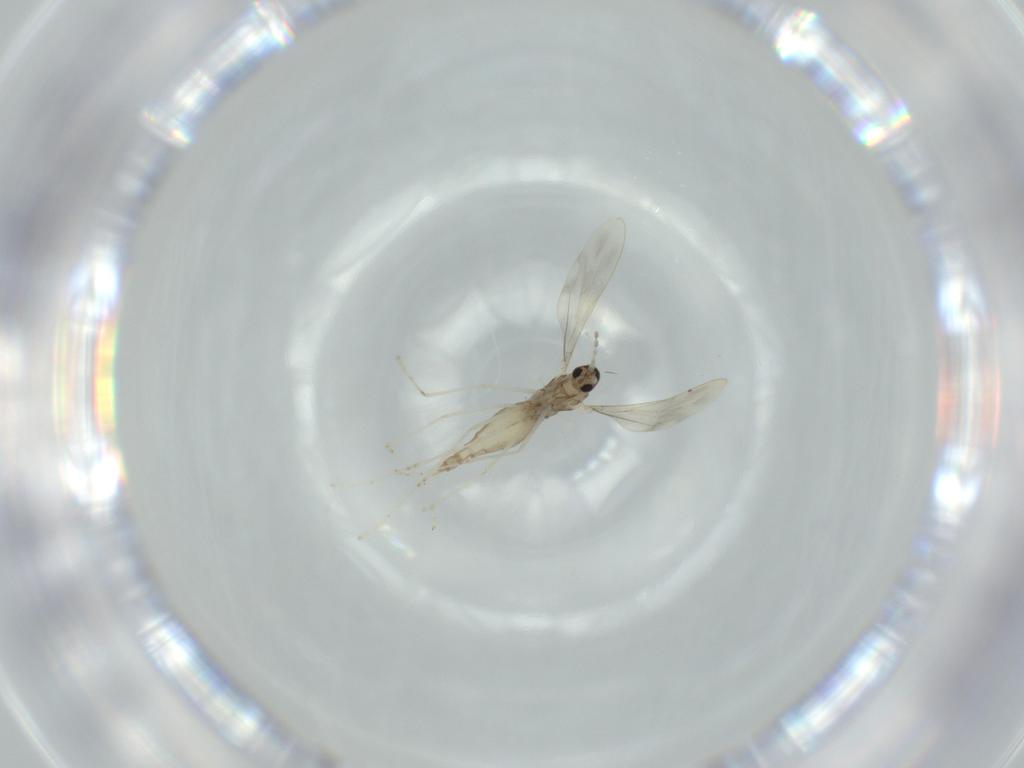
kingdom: Animalia
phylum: Arthropoda
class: Insecta
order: Diptera
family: Cecidomyiidae
